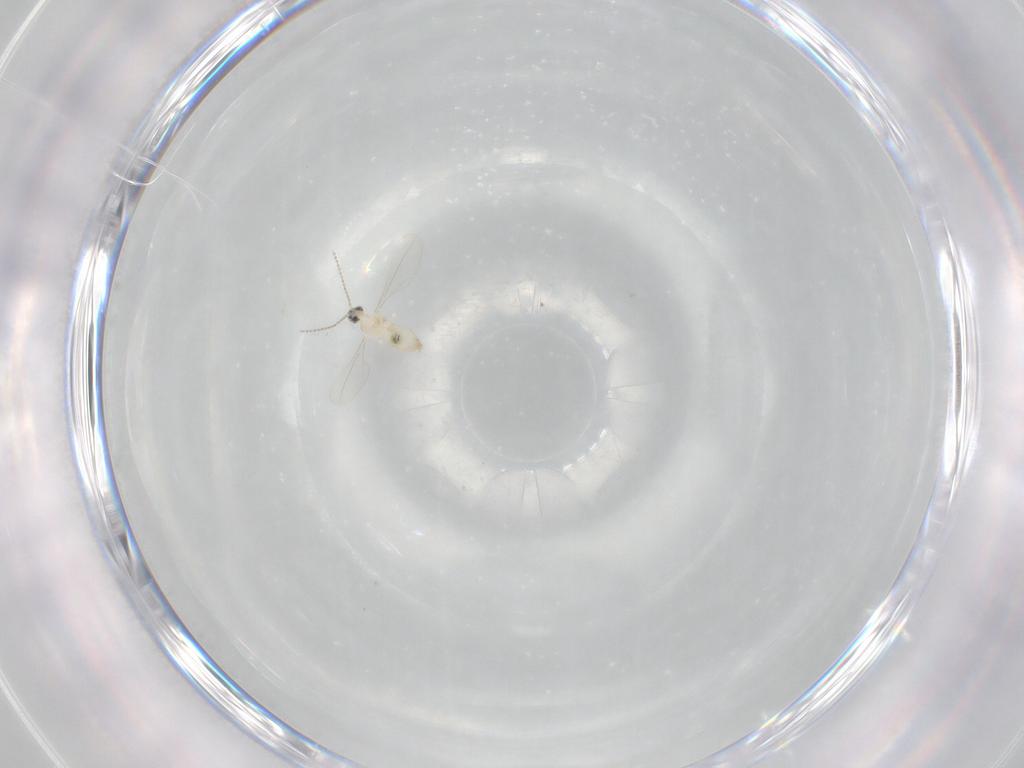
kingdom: Animalia
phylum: Arthropoda
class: Insecta
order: Diptera
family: Cecidomyiidae
